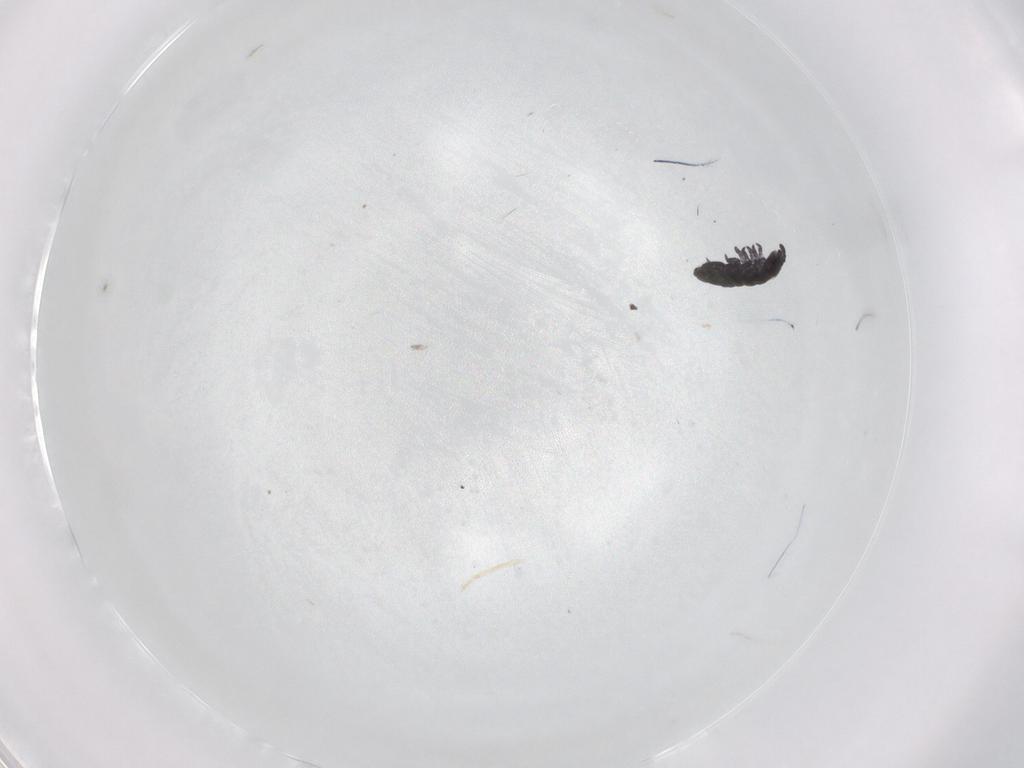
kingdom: Animalia
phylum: Arthropoda
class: Collembola
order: Poduromorpha
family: Hypogastruridae
